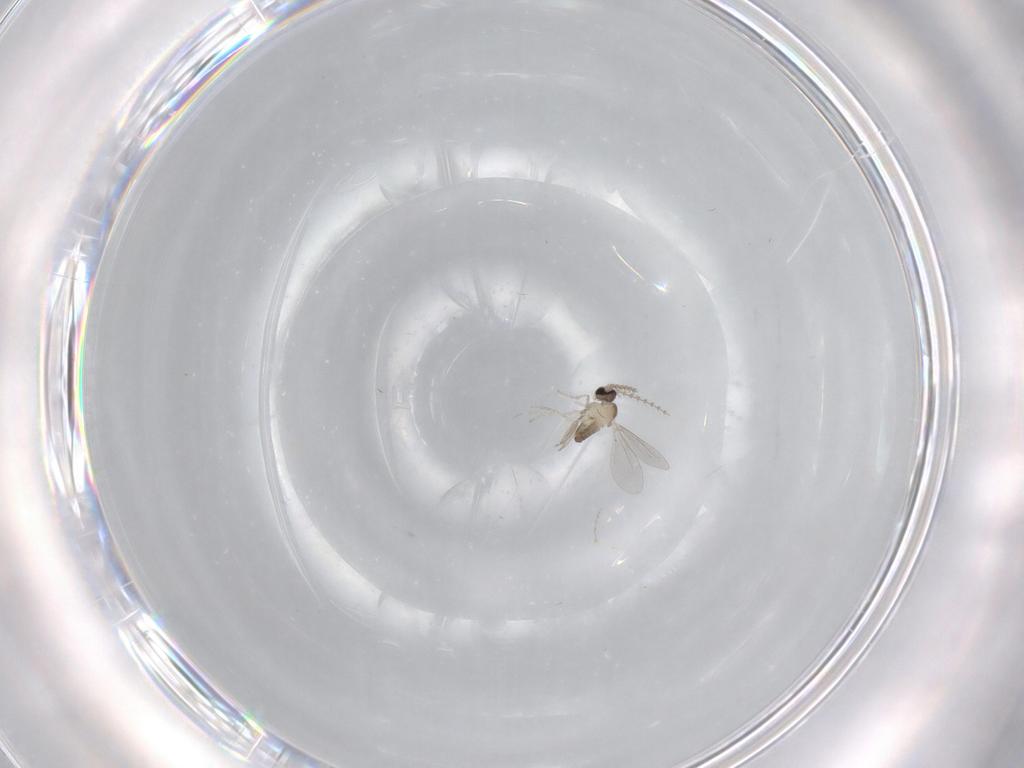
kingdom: Animalia
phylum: Arthropoda
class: Insecta
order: Diptera
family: Cecidomyiidae
